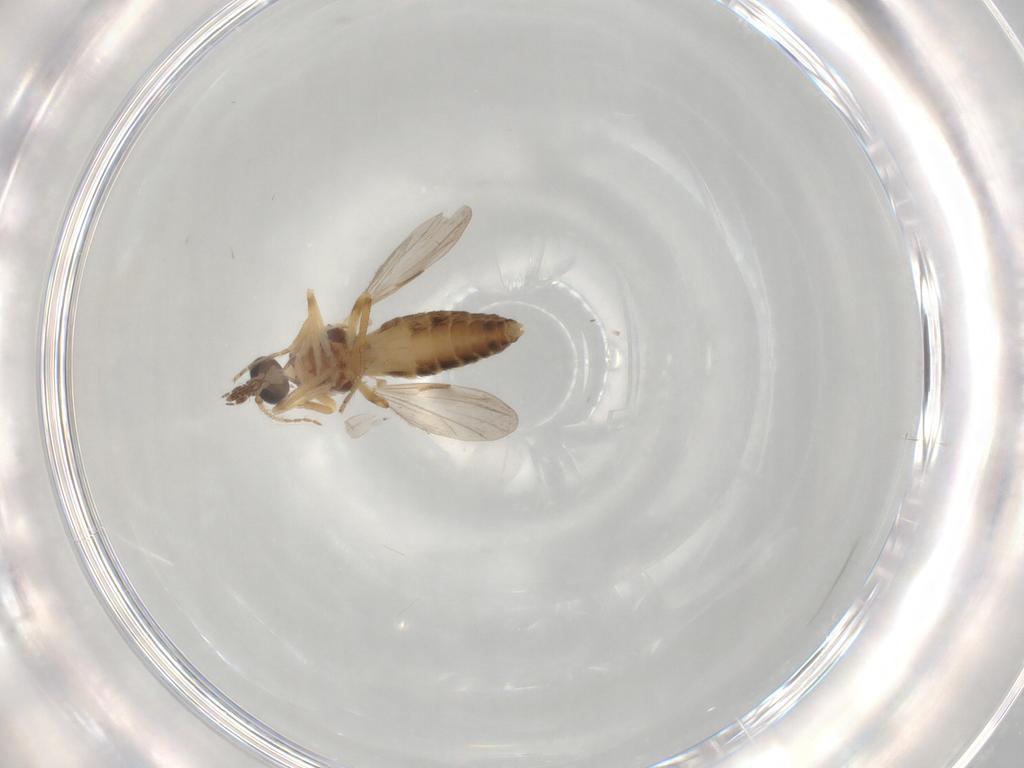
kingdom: Animalia
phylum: Arthropoda
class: Insecta
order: Diptera
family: Ceratopogonidae
